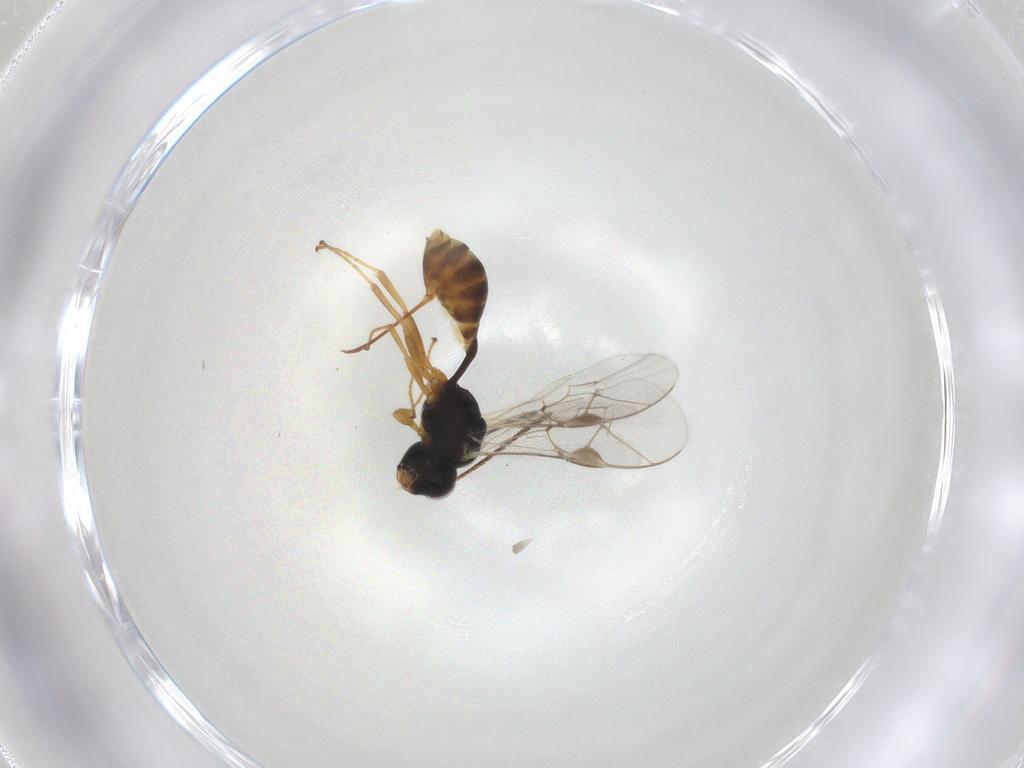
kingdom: Animalia
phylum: Arthropoda
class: Insecta
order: Hymenoptera
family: Ichneumonidae
